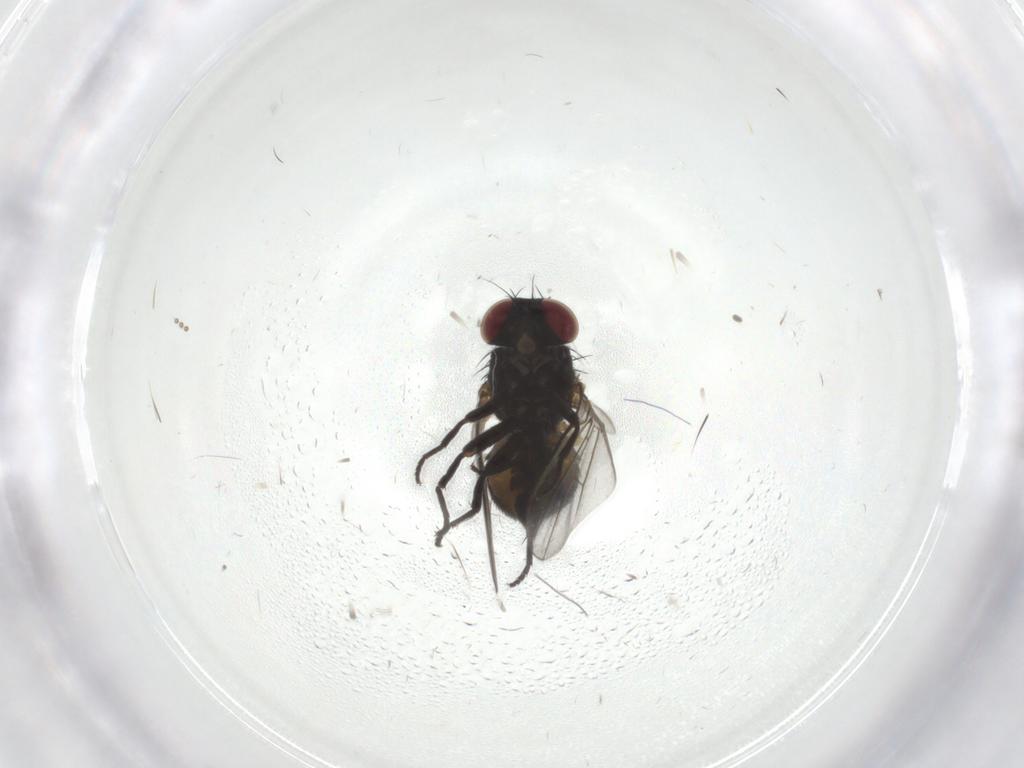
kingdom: Animalia
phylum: Arthropoda
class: Insecta
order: Diptera
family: Agromyzidae
